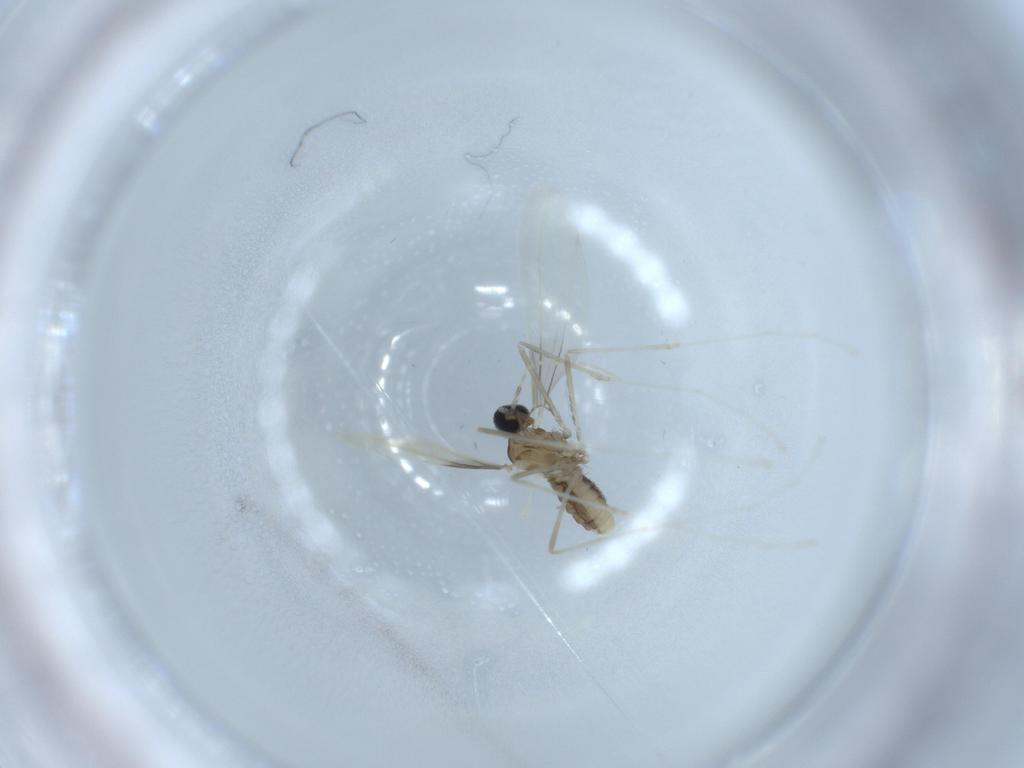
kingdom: Animalia
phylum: Arthropoda
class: Insecta
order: Diptera
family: Cecidomyiidae
